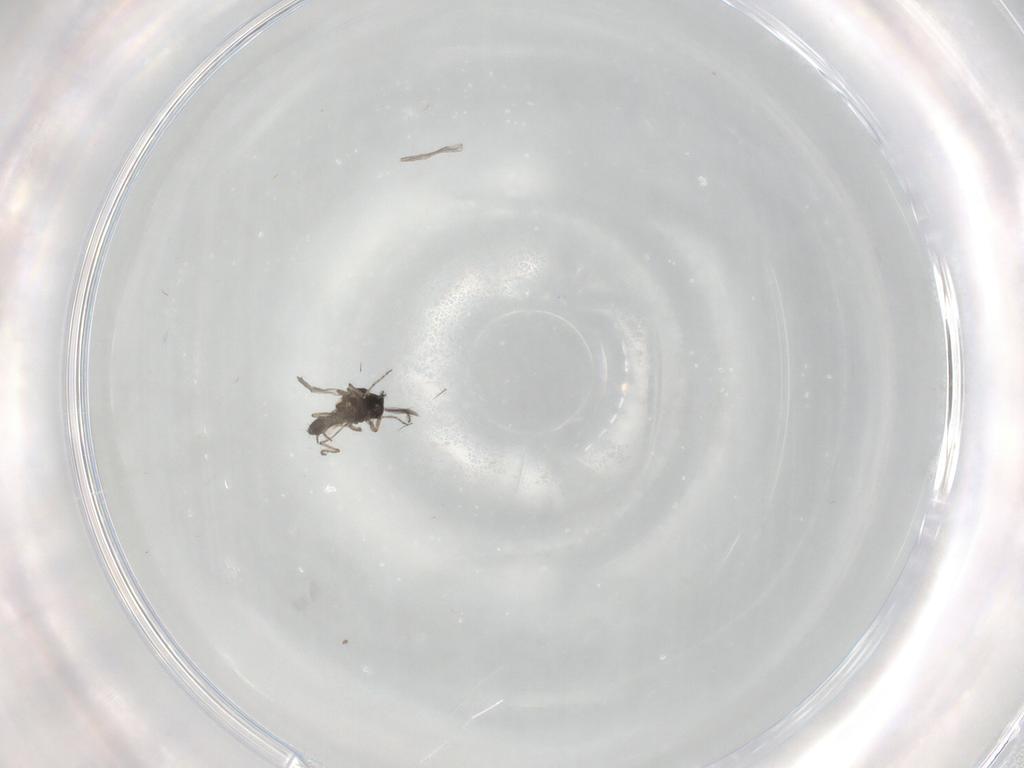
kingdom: Animalia
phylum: Arthropoda
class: Insecta
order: Diptera
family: Ceratopogonidae
